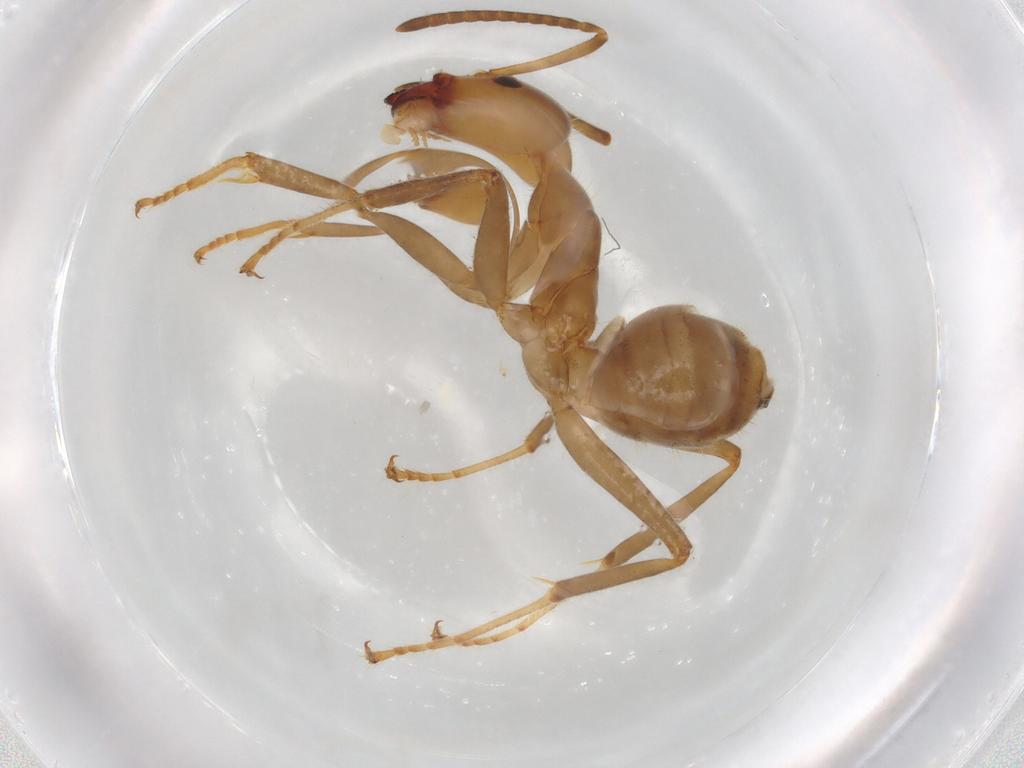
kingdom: Animalia
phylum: Arthropoda
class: Insecta
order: Hymenoptera
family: Formicidae
